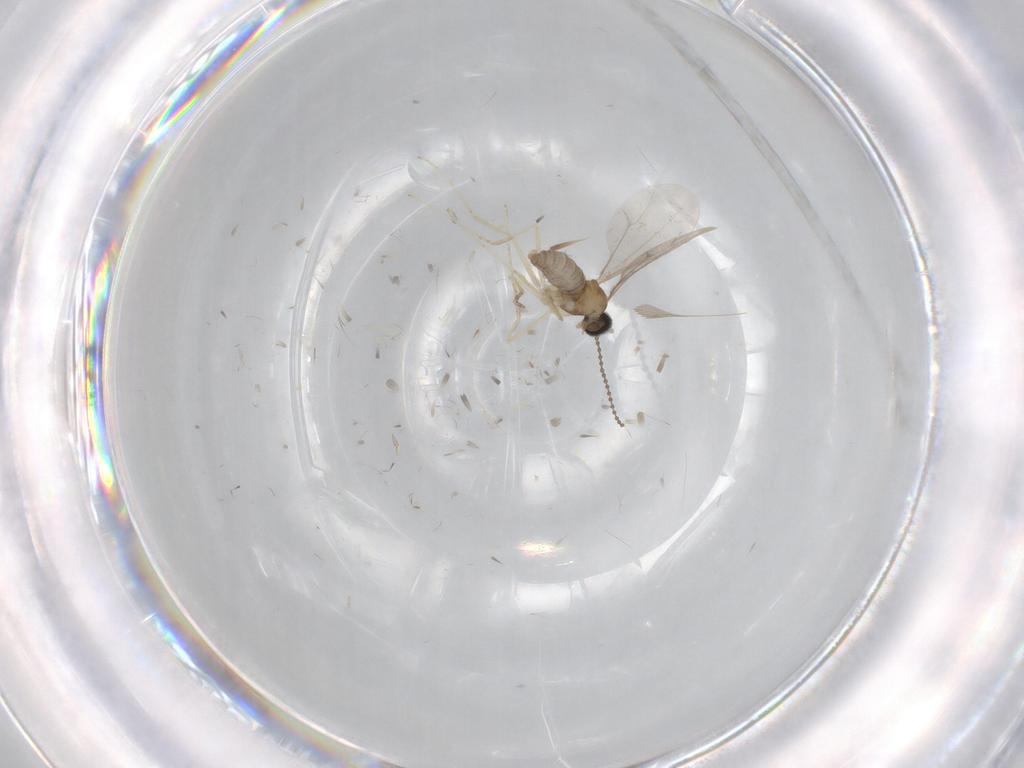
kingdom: Animalia
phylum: Arthropoda
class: Insecta
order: Diptera
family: Cecidomyiidae
